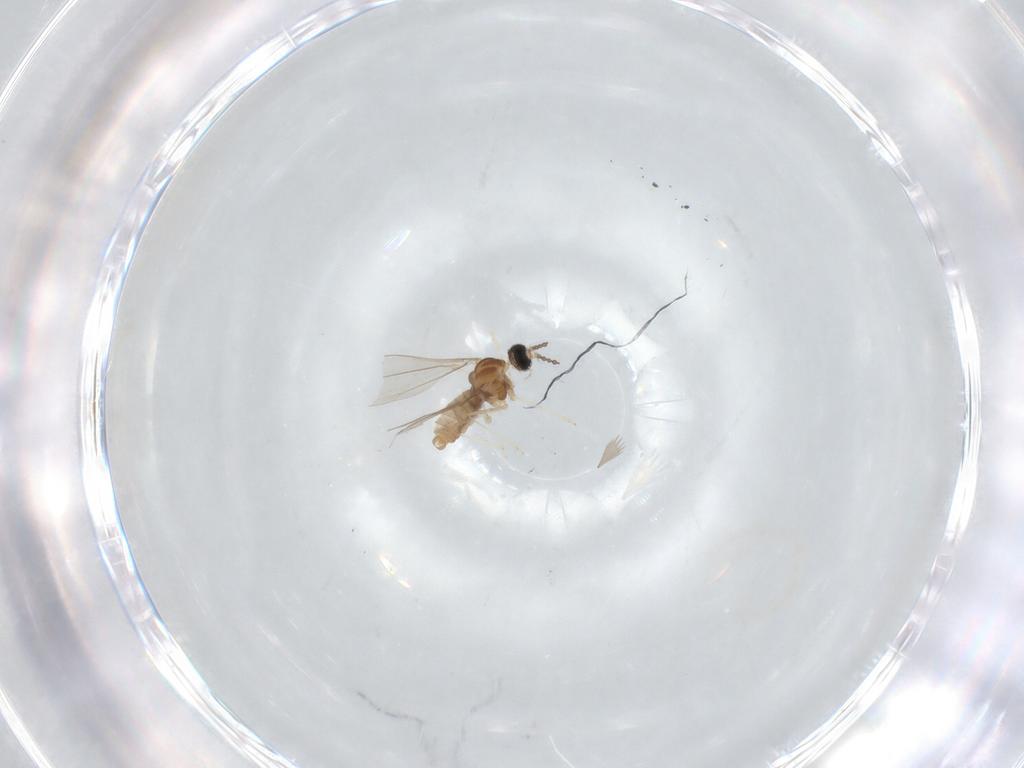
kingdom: Animalia
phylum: Arthropoda
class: Insecta
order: Diptera
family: Cecidomyiidae
